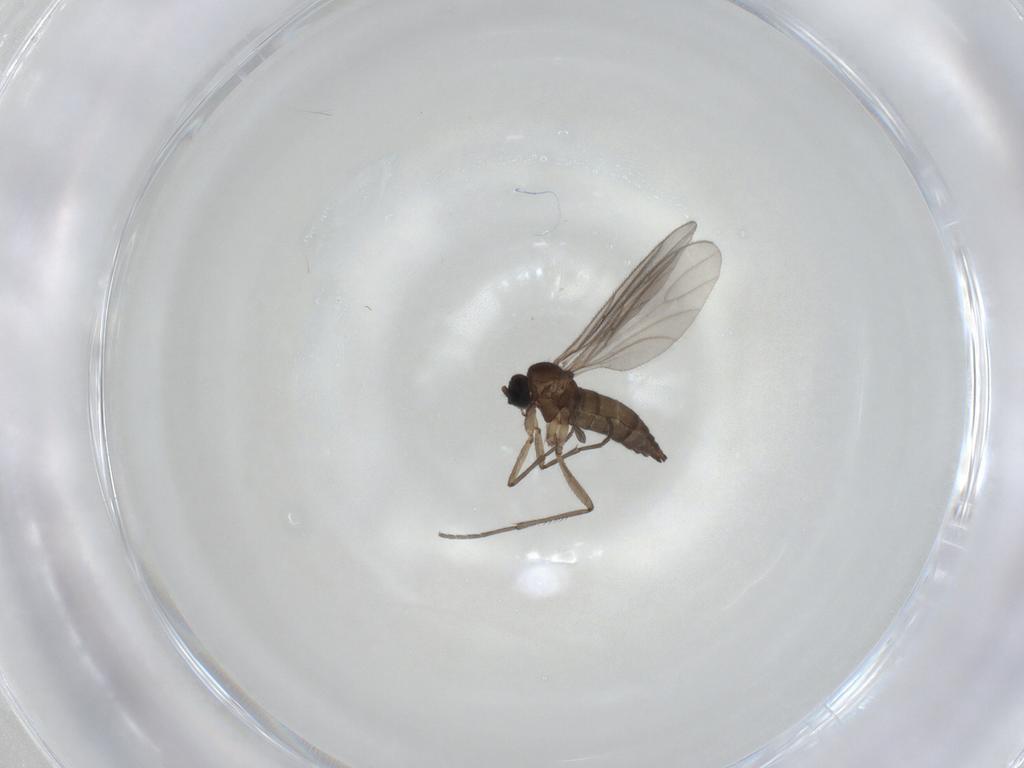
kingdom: Animalia
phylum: Arthropoda
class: Insecta
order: Diptera
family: Sciaridae
